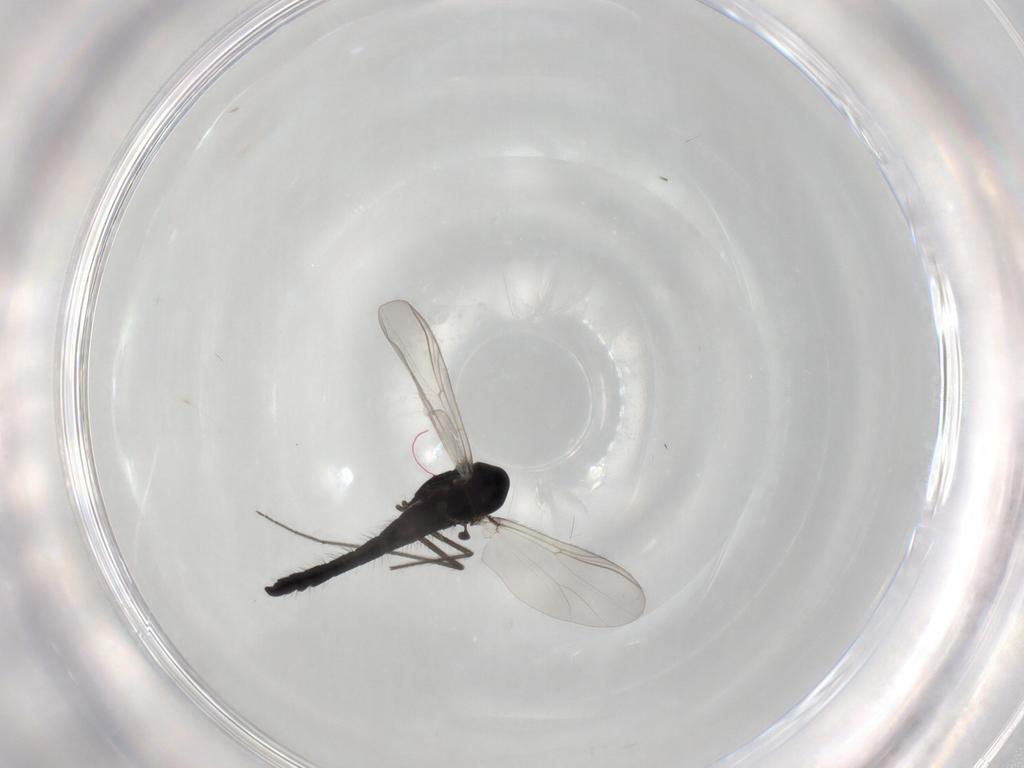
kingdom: Animalia
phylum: Arthropoda
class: Insecta
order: Diptera
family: Chironomidae
